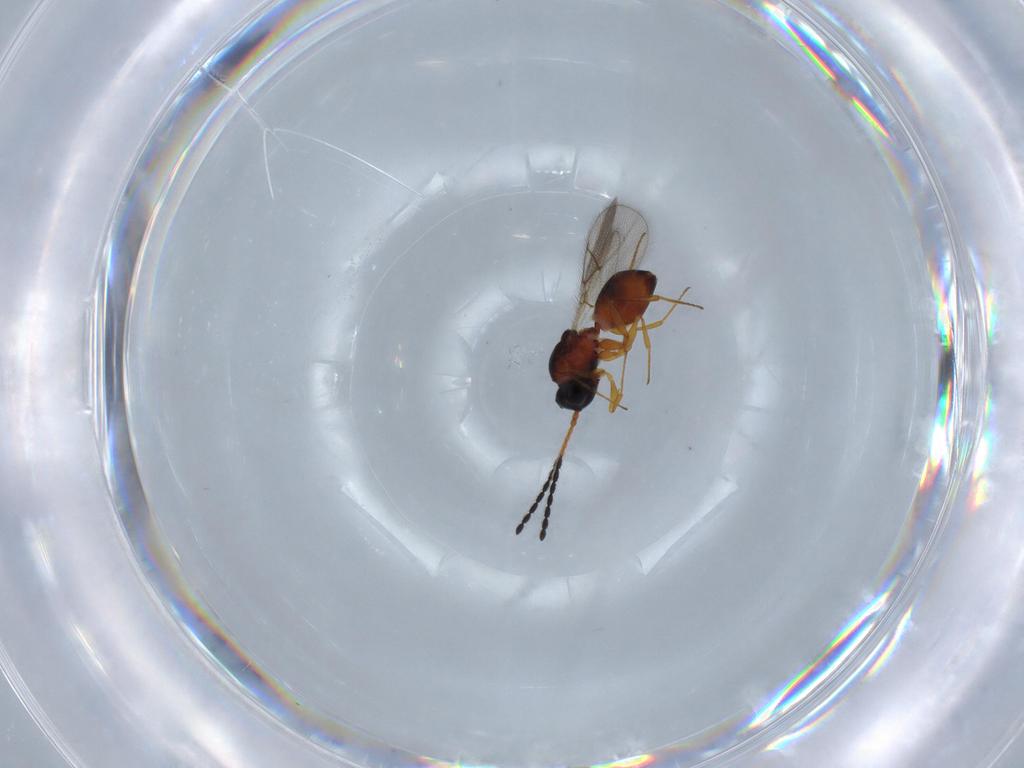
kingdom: Animalia
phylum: Arthropoda
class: Insecta
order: Hymenoptera
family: Figitidae
